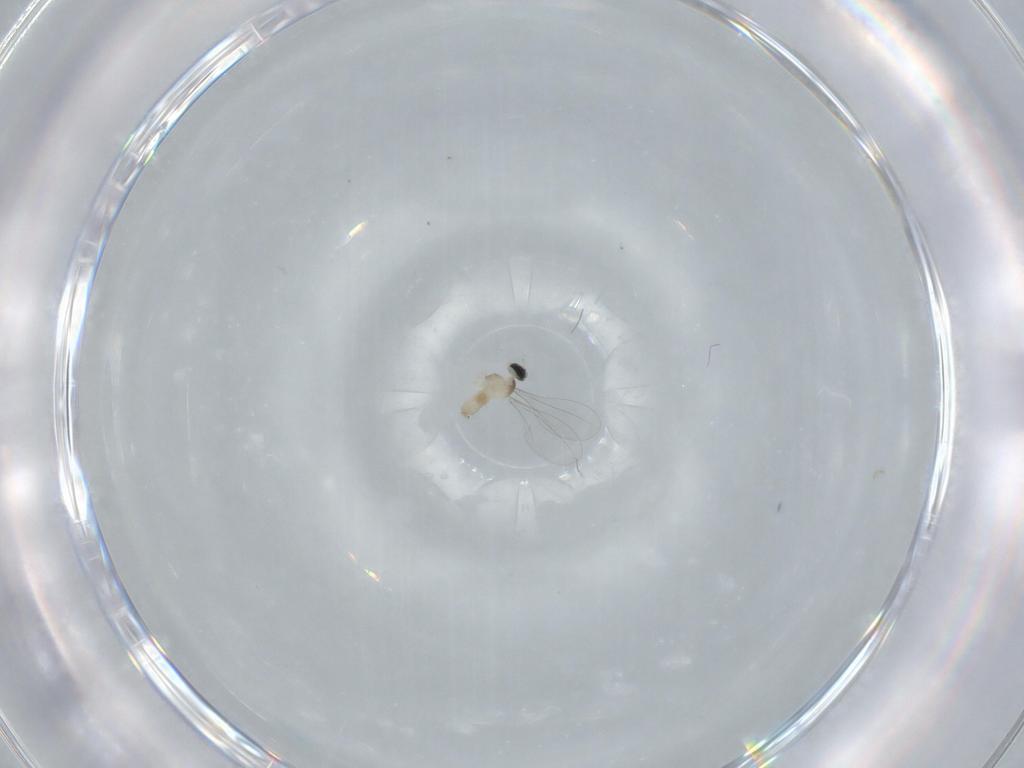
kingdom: Animalia
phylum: Arthropoda
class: Insecta
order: Diptera
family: Cecidomyiidae
